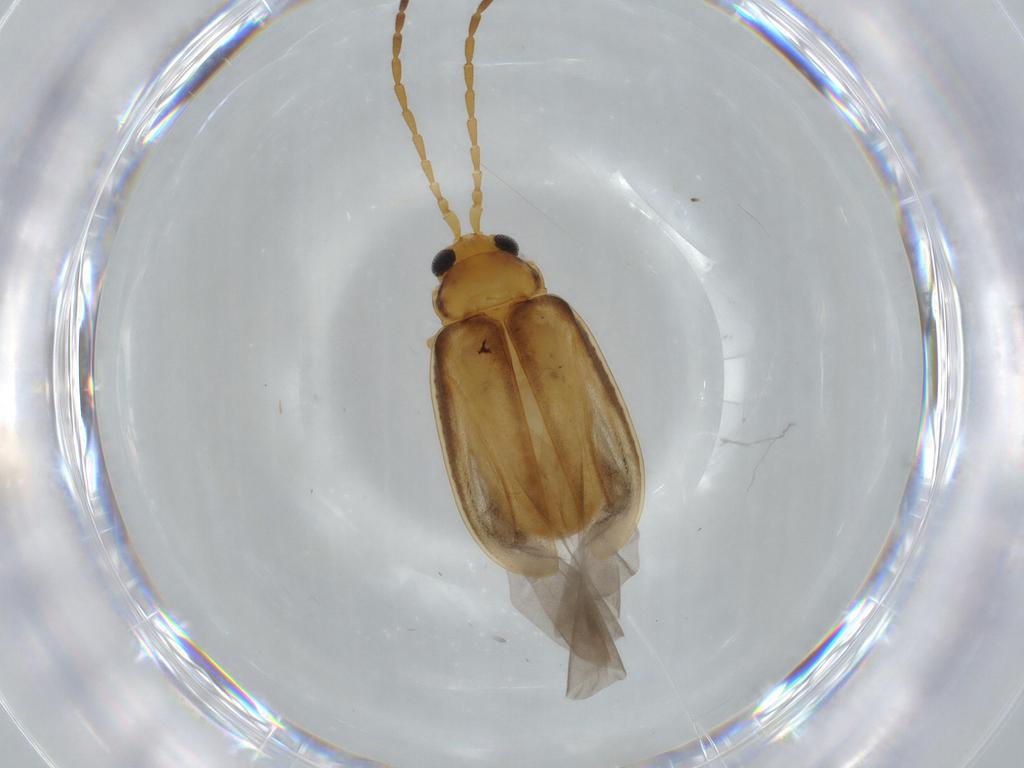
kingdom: Animalia
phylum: Arthropoda
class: Insecta
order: Coleoptera
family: Chrysomelidae
